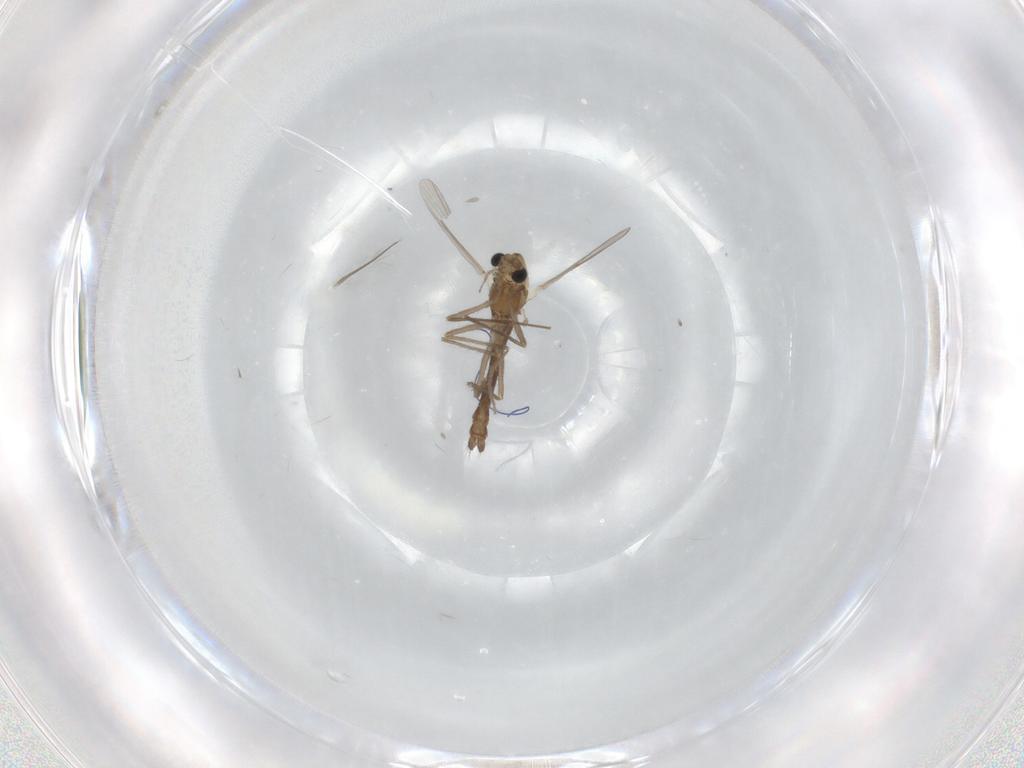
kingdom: Animalia
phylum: Arthropoda
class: Insecta
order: Diptera
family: Chironomidae
